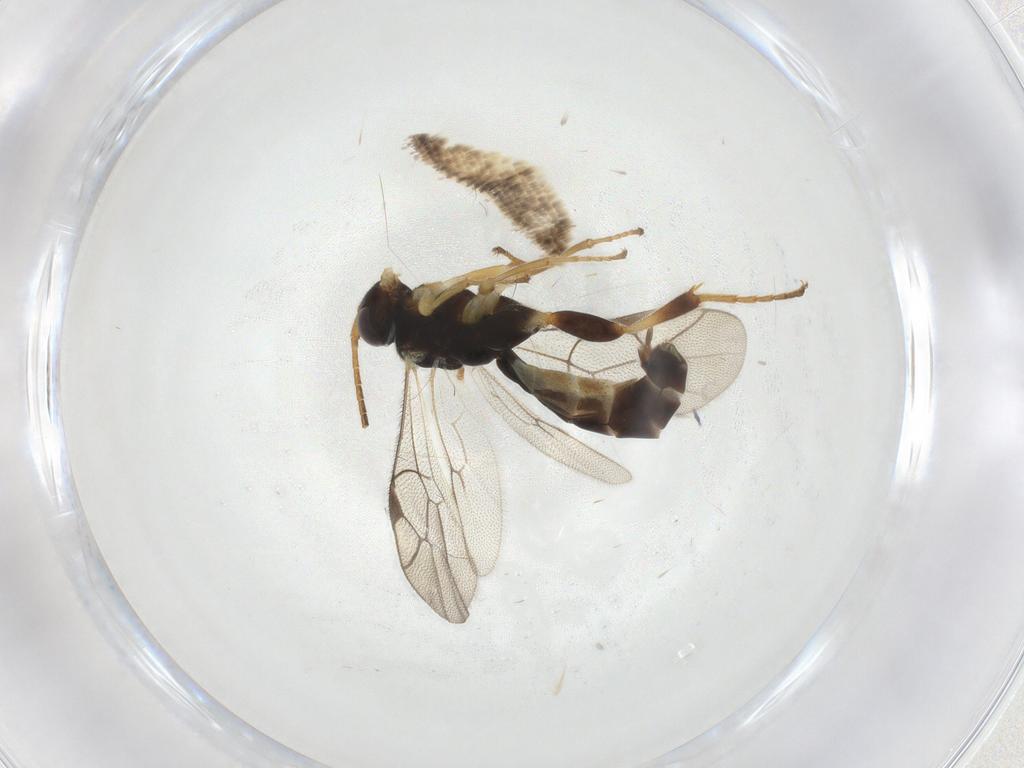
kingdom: Animalia
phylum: Arthropoda
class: Insecta
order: Hymenoptera
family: Ichneumonidae
